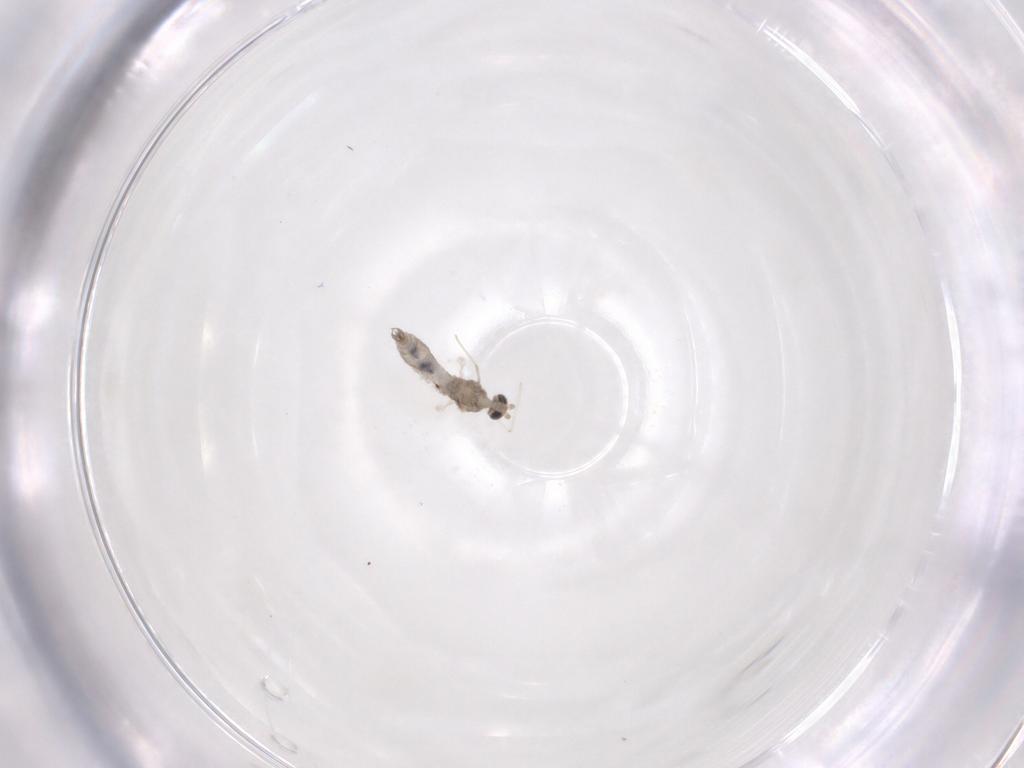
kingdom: Animalia
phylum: Arthropoda
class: Insecta
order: Diptera
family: Cecidomyiidae
